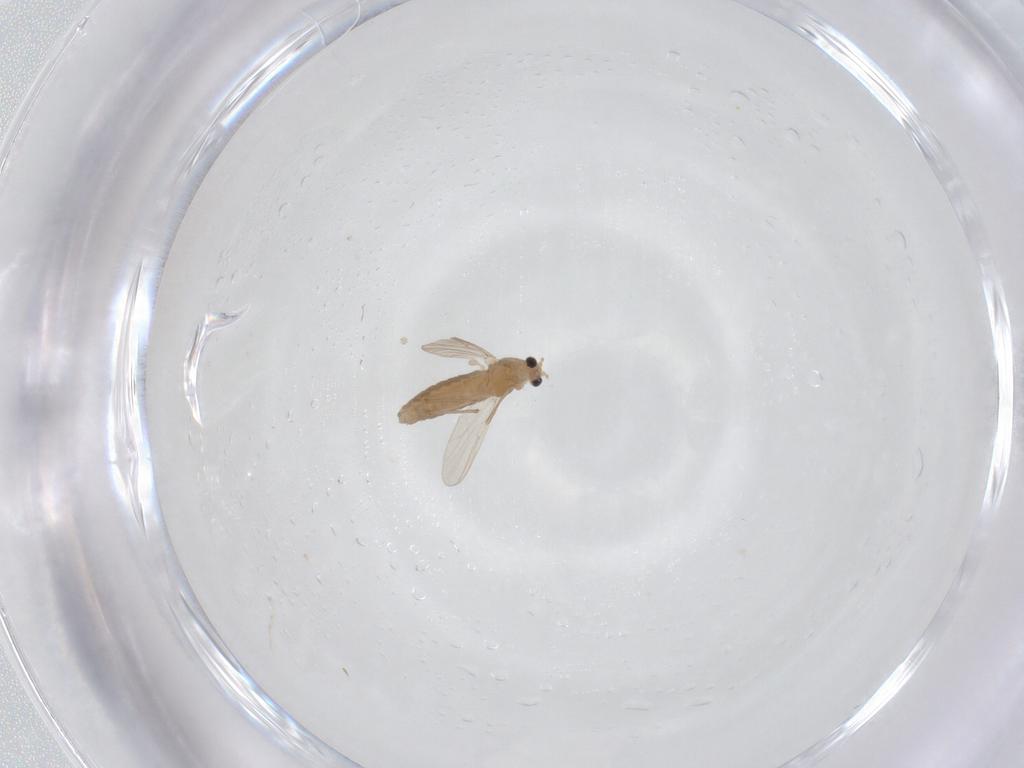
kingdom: Animalia
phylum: Arthropoda
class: Insecta
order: Diptera
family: Chironomidae
